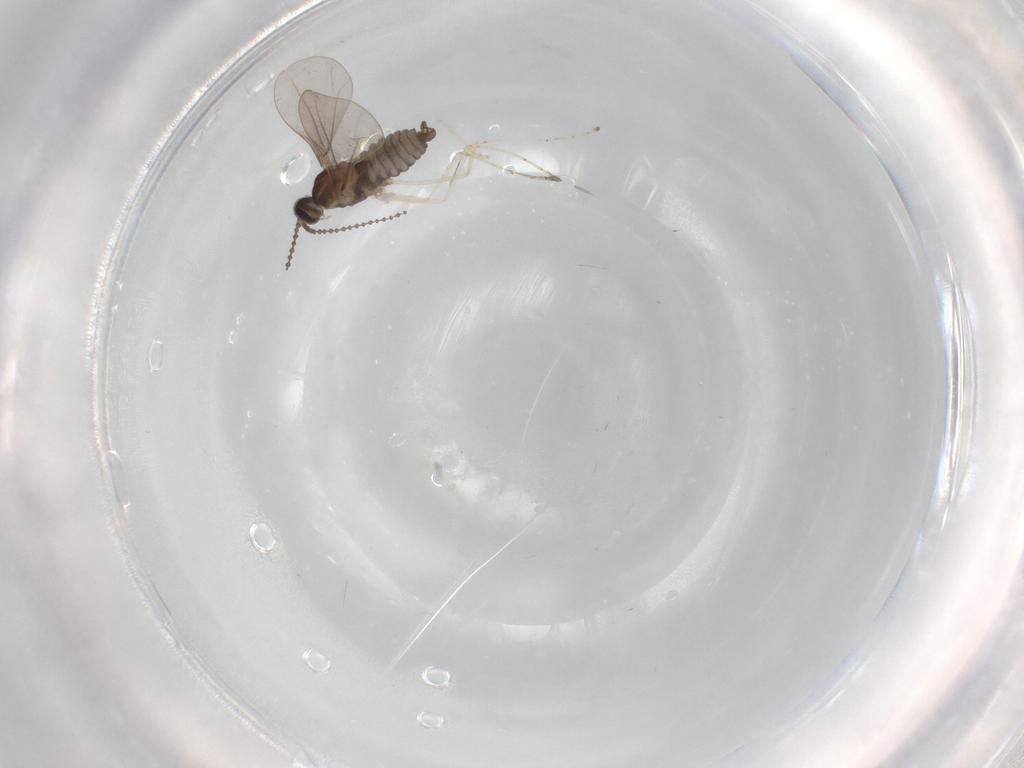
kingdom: Animalia
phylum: Arthropoda
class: Insecta
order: Diptera
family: Cecidomyiidae
